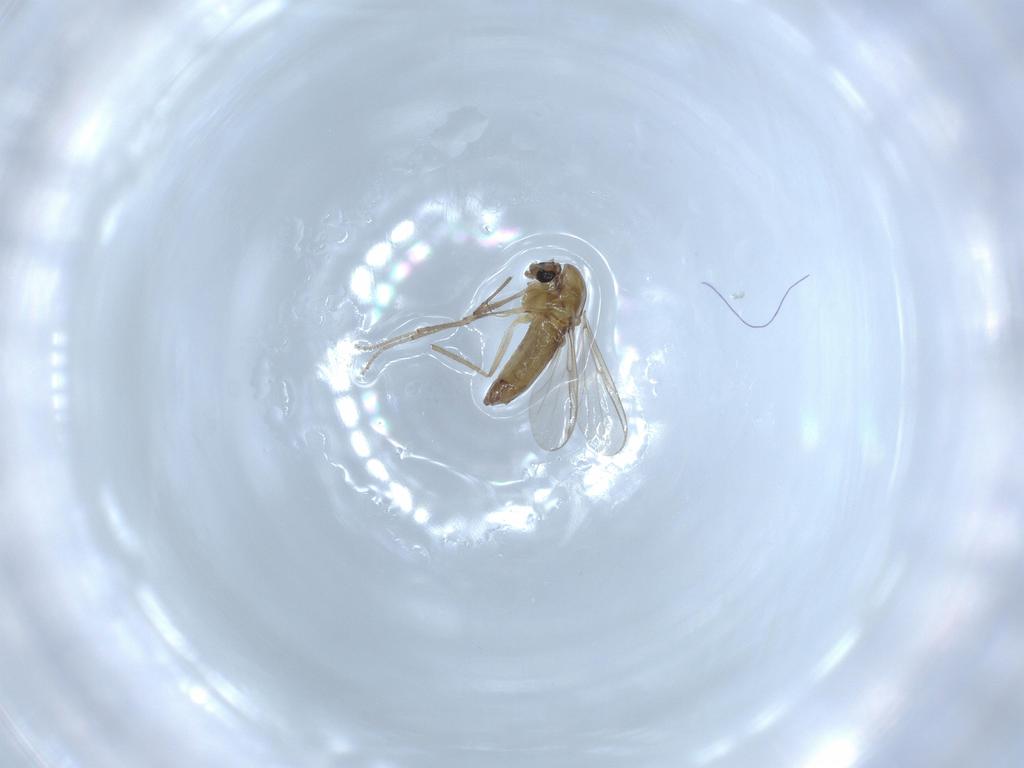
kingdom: Animalia
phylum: Arthropoda
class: Insecta
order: Diptera
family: Chironomidae
